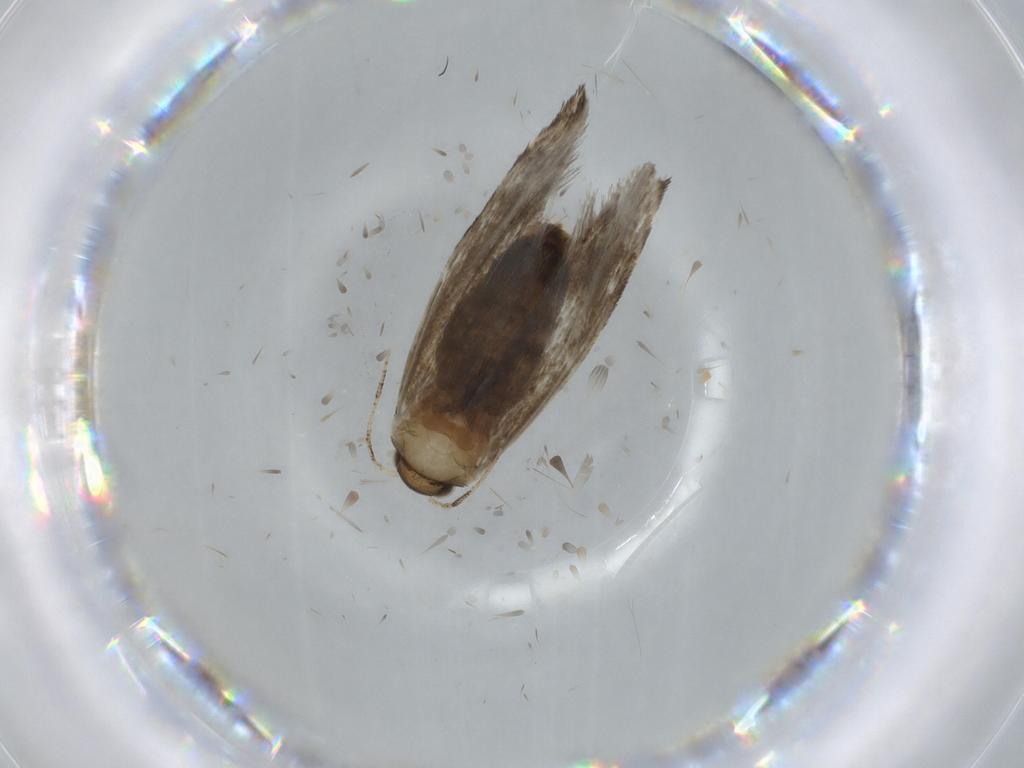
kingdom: Animalia
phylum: Arthropoda
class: Insecta
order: Lepidoptera
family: Tineidae
